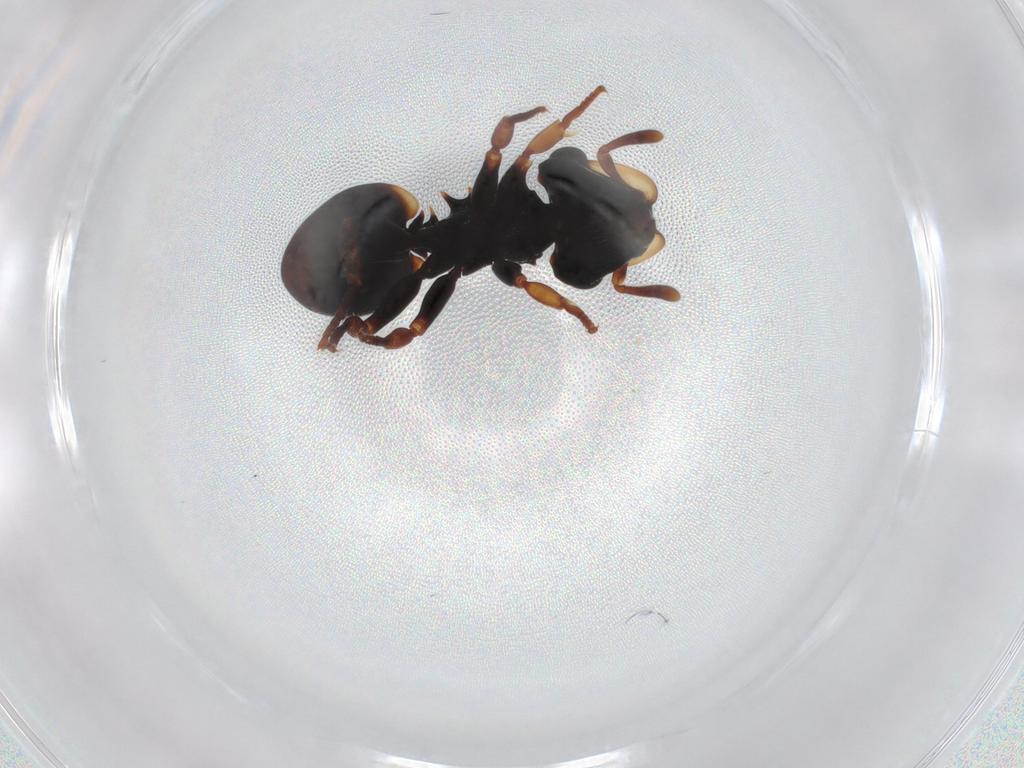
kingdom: Animalia
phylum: Arthropoda
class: Insecta
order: Hymenoptera
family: Formicidae
